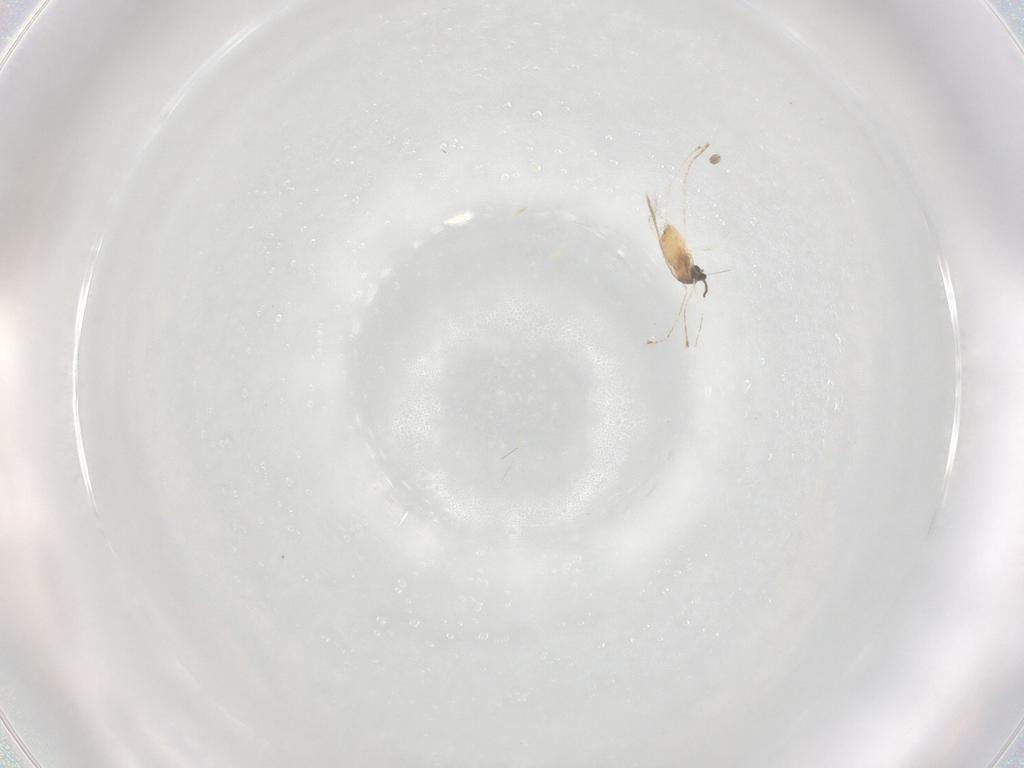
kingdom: Animalia
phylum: Arthropoda
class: Insecta
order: Diptera
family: Cecidomyiidae
